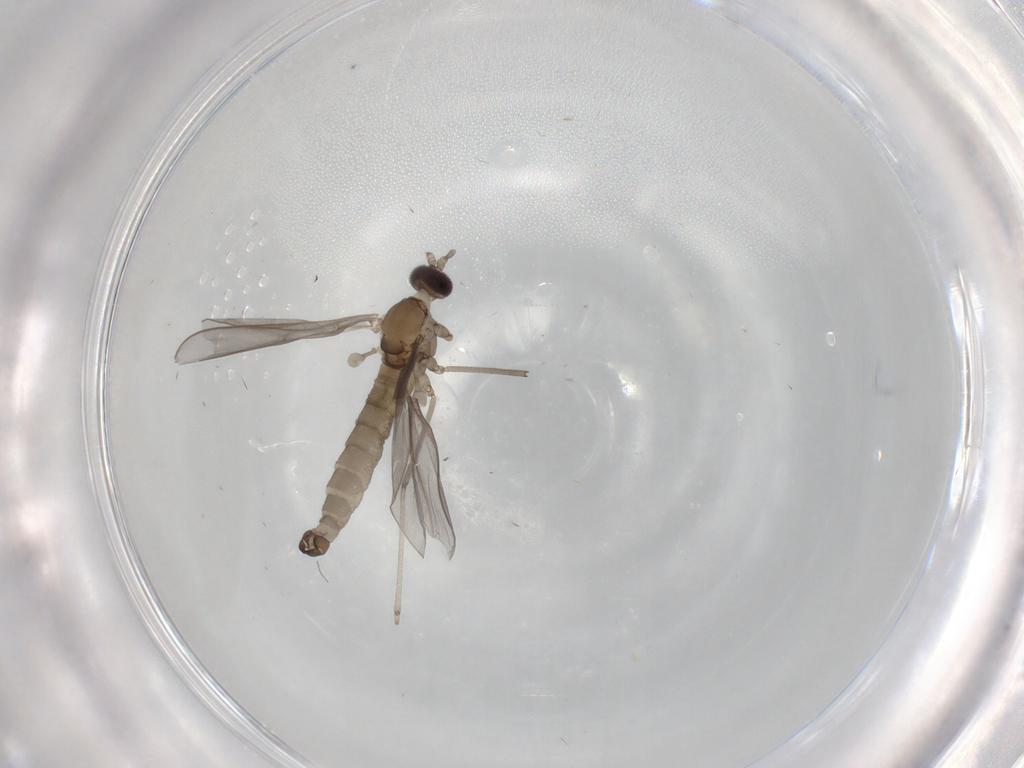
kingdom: Animalia
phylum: Arthropoda
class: Insecta
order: Diptera
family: Cecidomyiidae
